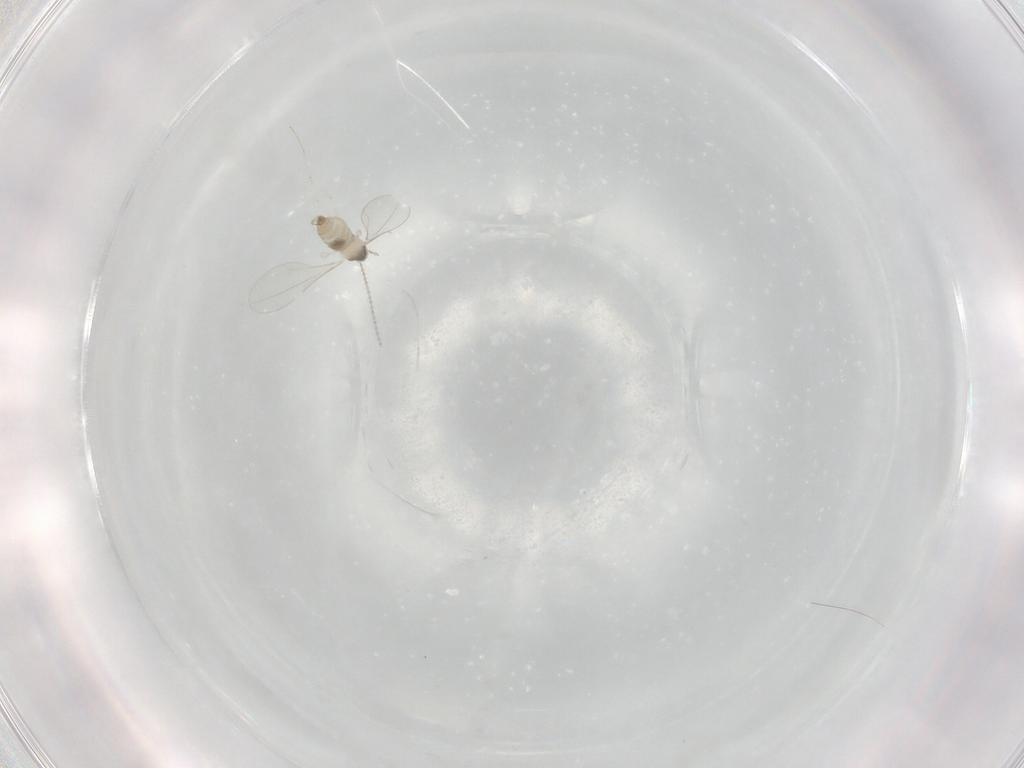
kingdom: Animalia
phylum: Arthropoda
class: Insecta
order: Diptera
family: Cecidomyiidae
